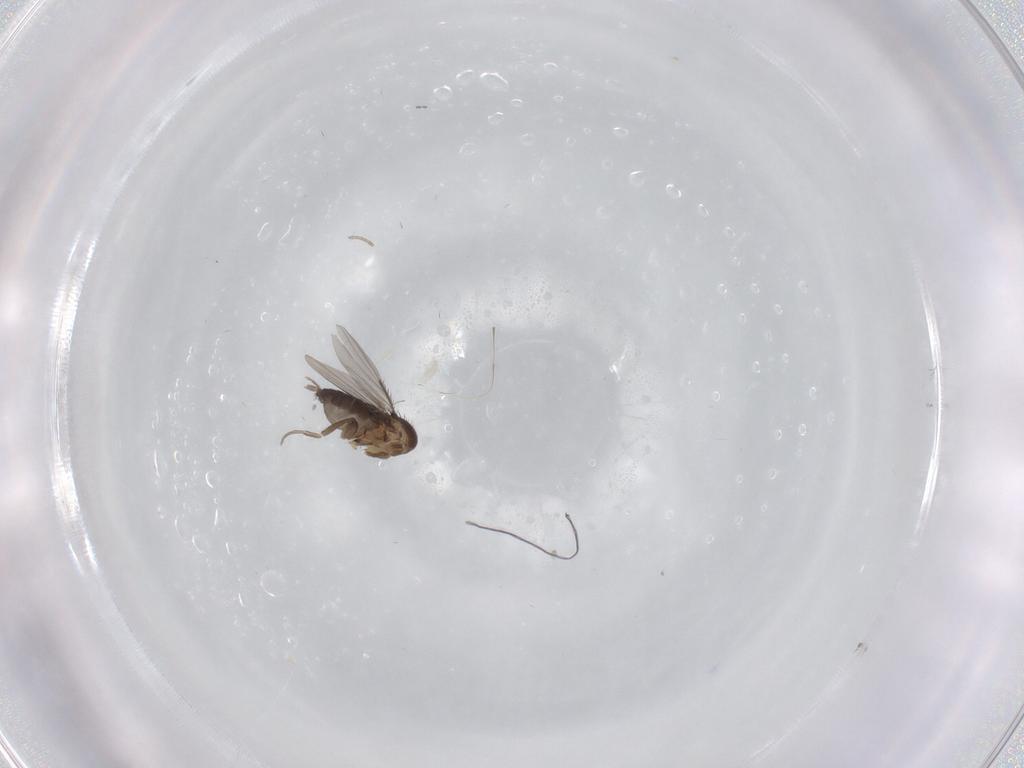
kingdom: Animalia
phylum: Arthropoda
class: Insecta
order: Diptera
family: Phoridae
